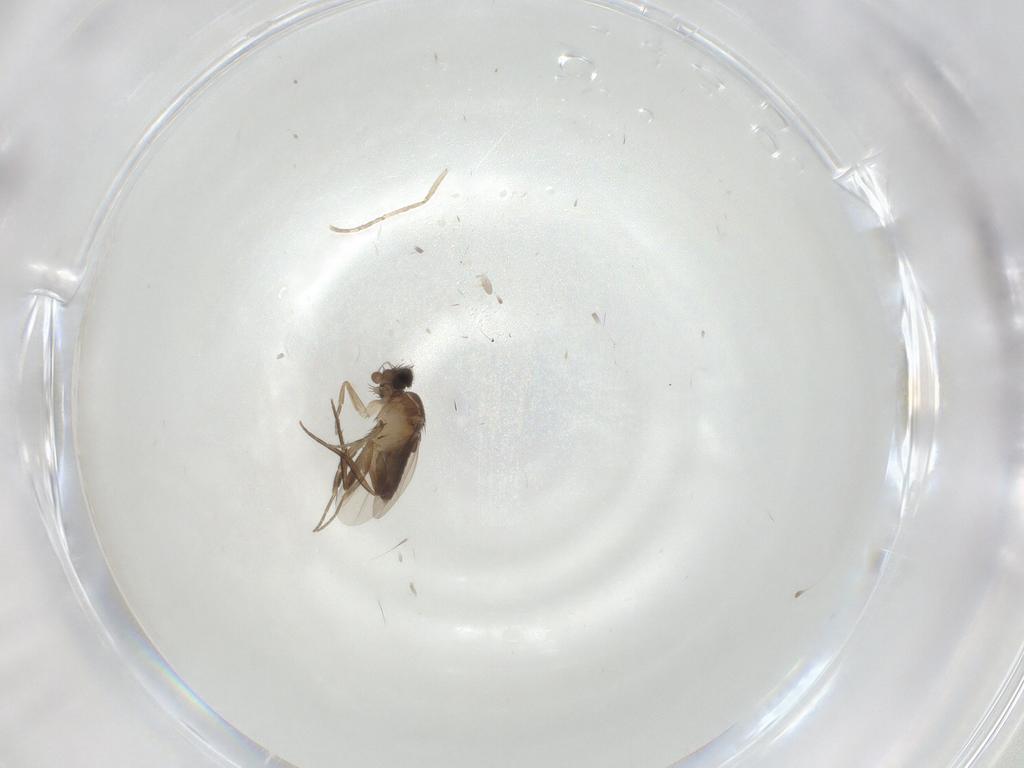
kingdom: Animalia
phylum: Arthropoda
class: Insecta
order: Diptera
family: Phoridae
